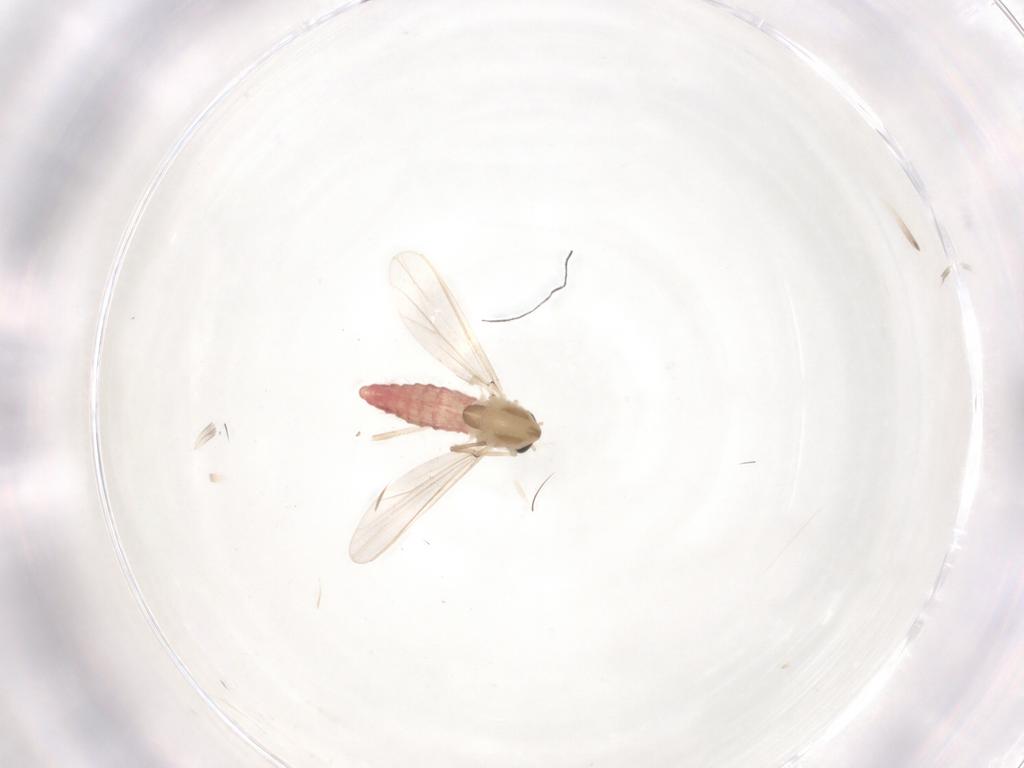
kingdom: Animalia
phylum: Arthropoda
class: Insecta
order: Diptera
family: Chironomidae
